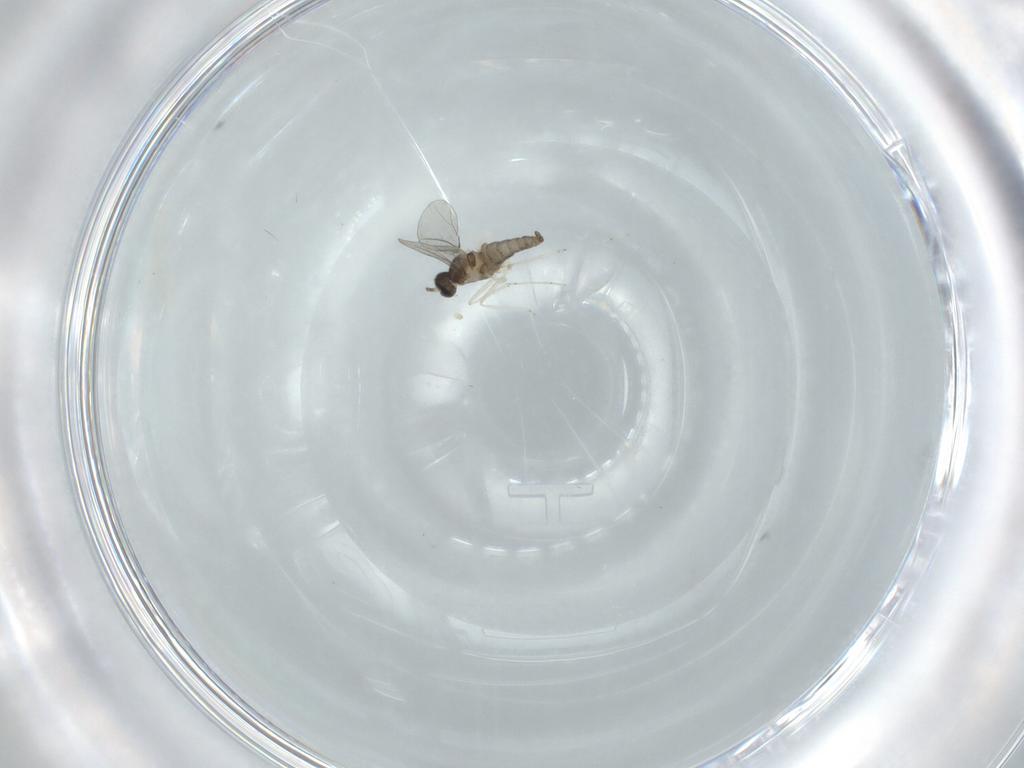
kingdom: Animalia
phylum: Arthropoda
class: Insecta
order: Diptera
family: Cecidomyiidae
